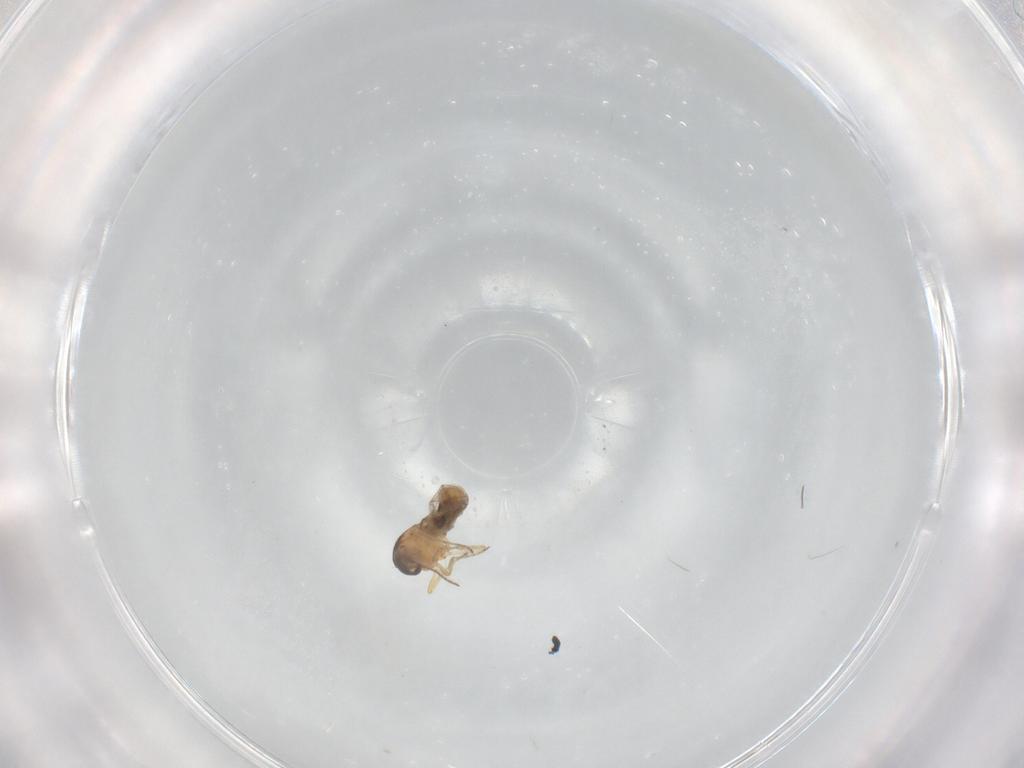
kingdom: Animalia
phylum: Arthropoda
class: Insecta
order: Diptera
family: Ceratopogonidae
